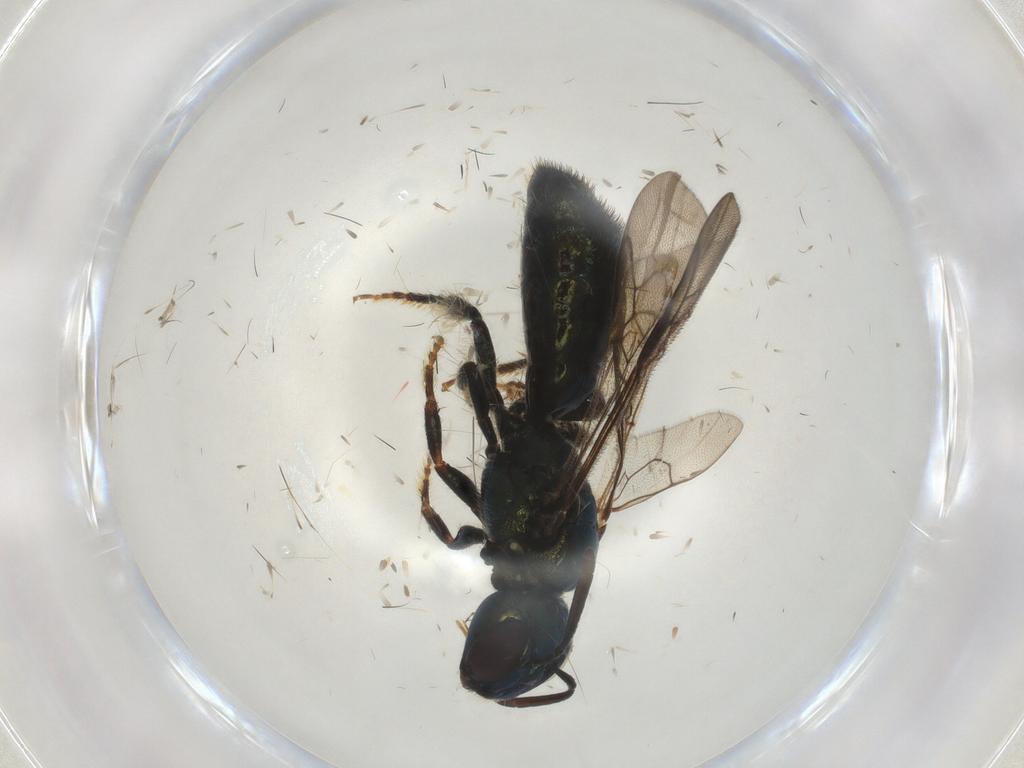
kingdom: Animalia
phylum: Arthropoda
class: Insecta
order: Hymenoptera
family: Apidae
